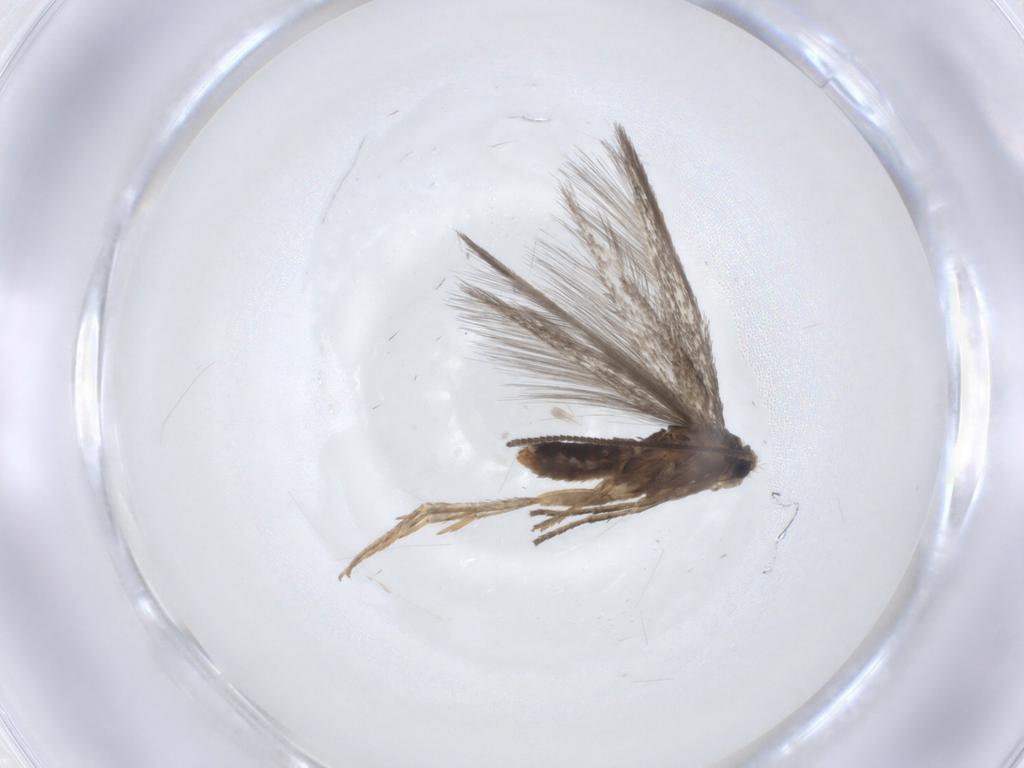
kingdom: Animalia
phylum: Arthropoda
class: Insecta
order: Lepidoptera
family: Nepticulidae
